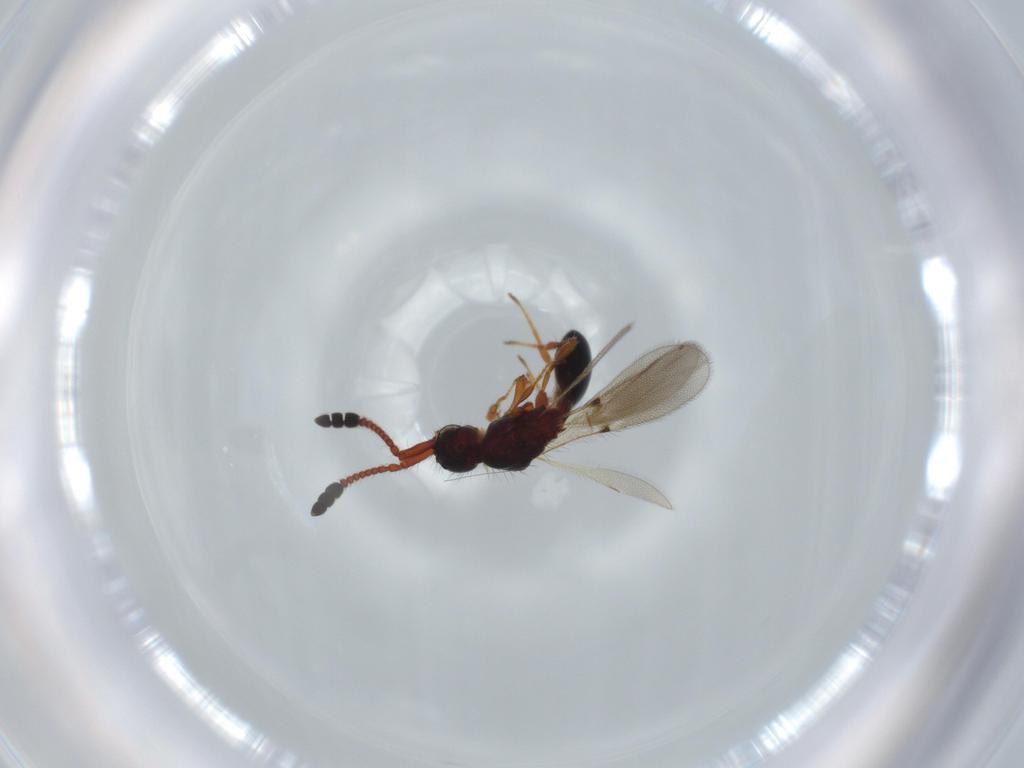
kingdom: Animalia
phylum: Arthropoda
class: Insecta
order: Hymenoptera
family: Diapriidae
